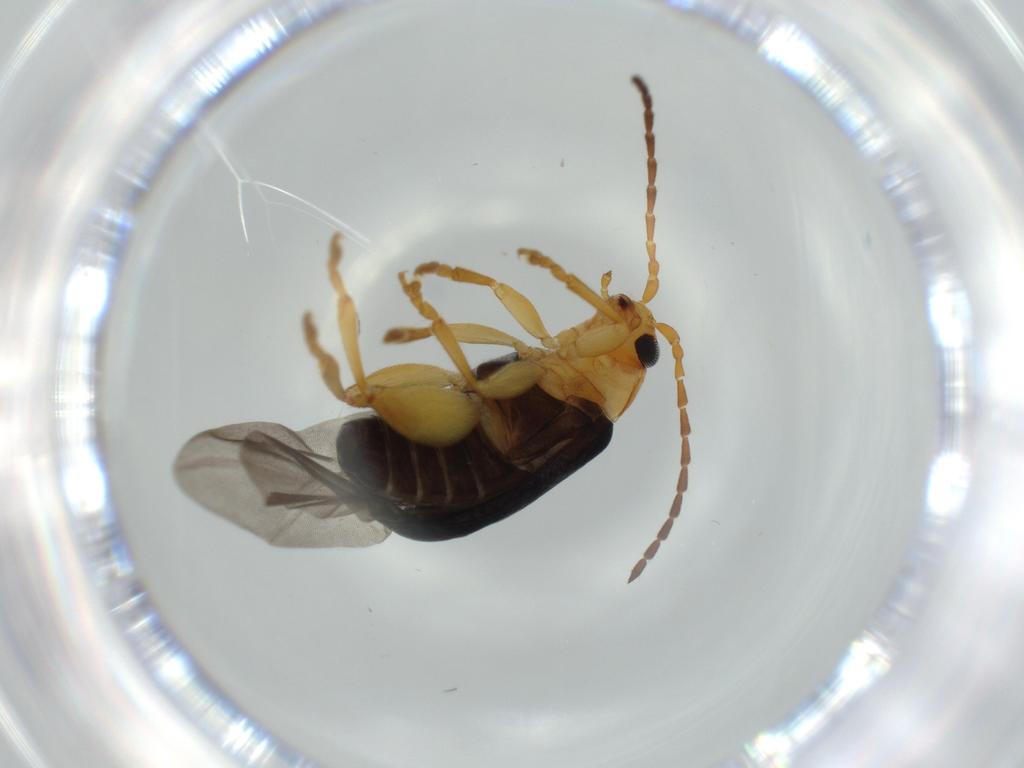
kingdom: Animalia
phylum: Arthropoda
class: Insecta
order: Coleoptera
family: Chrysomelidae
